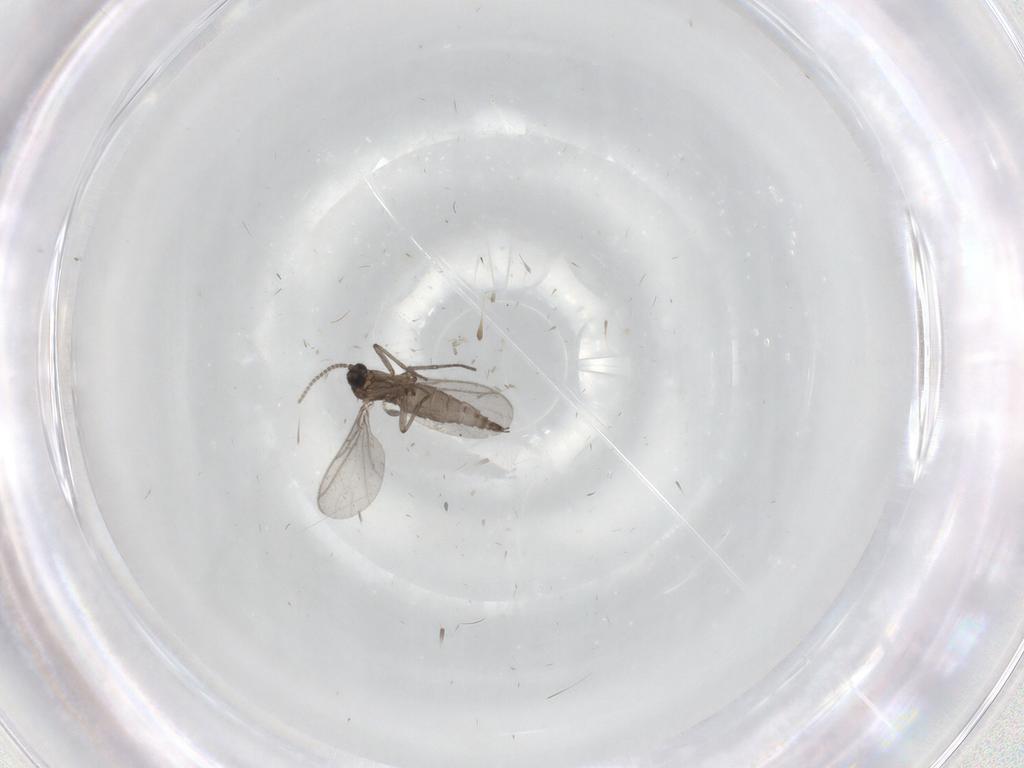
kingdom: Animalia
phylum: Arthropoda
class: Insecta
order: Diptera
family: Sciaridae
